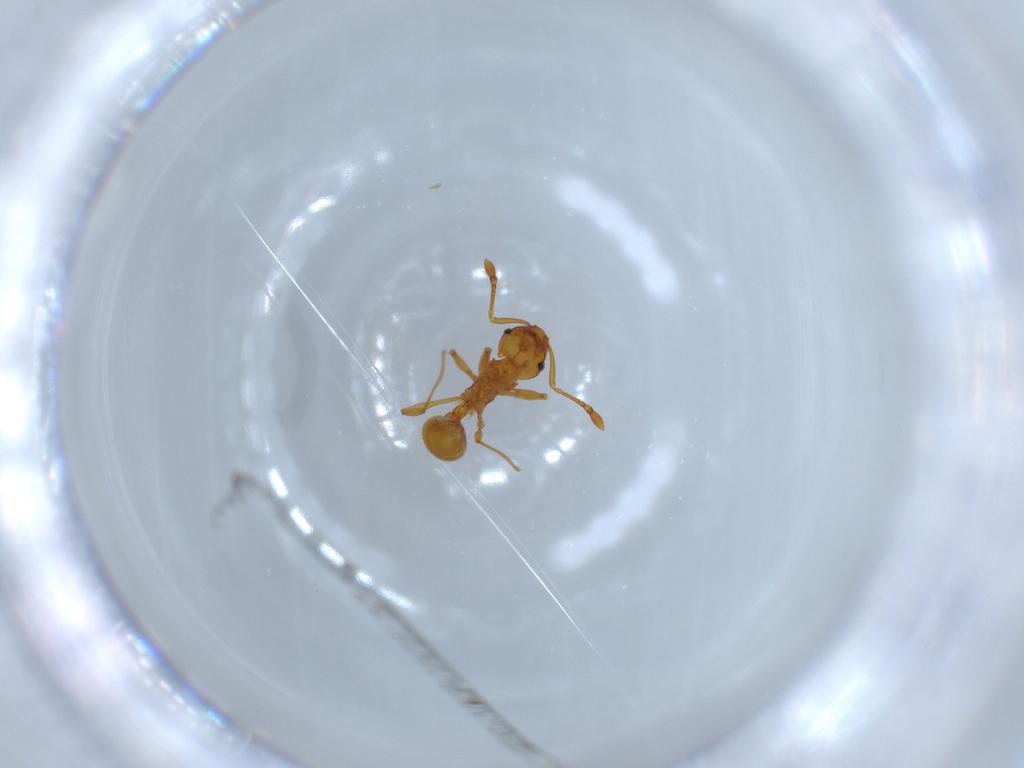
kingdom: Animalia
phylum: Arthropoda
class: Insecta
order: Hymenoptera
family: Formicidae
